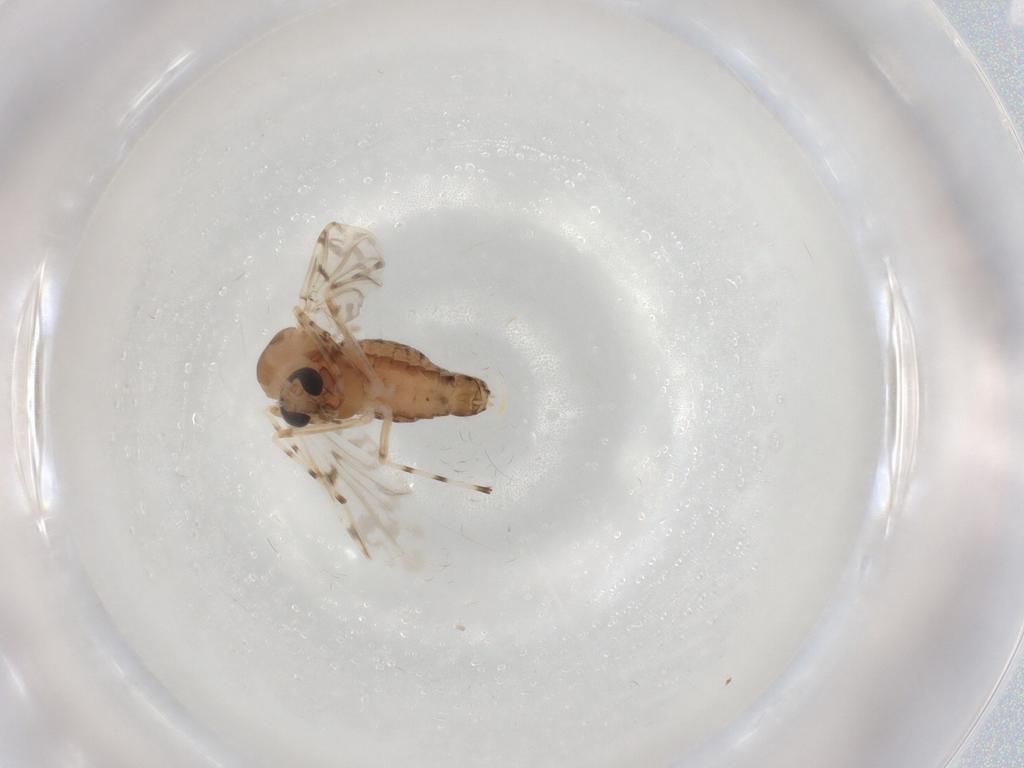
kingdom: Animalia
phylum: Arthropoda
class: Insecta
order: Diptera
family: Chironomidae
